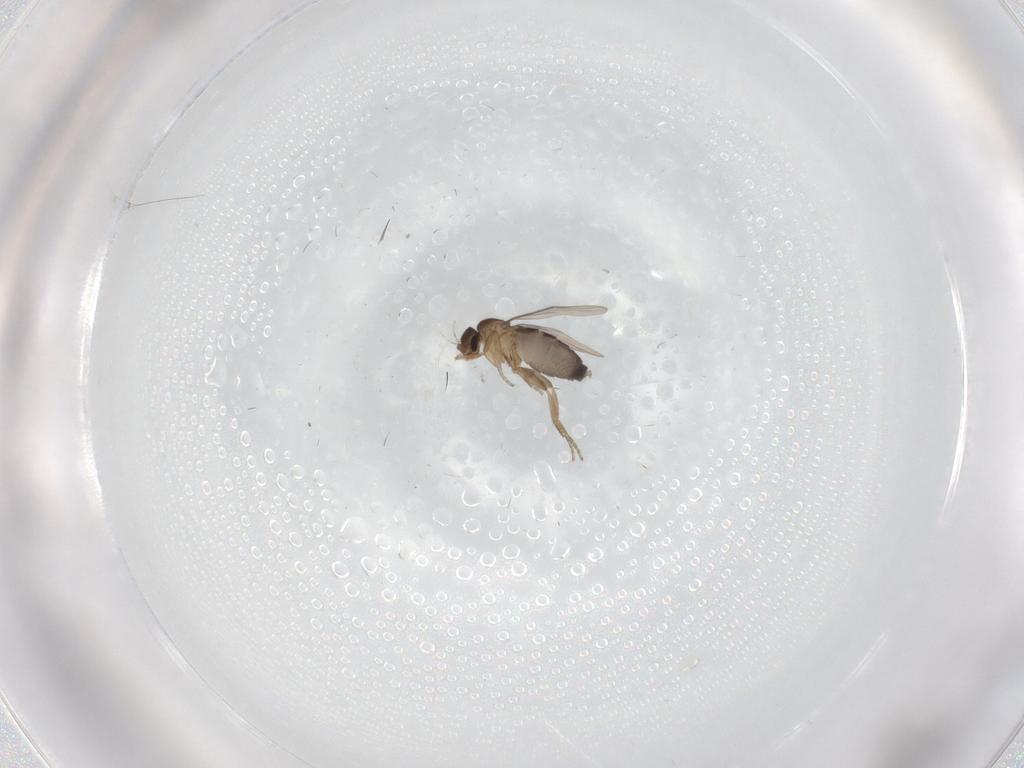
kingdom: Animalia
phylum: Arthropoda
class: Insecta
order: Diptera
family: Phoridae
